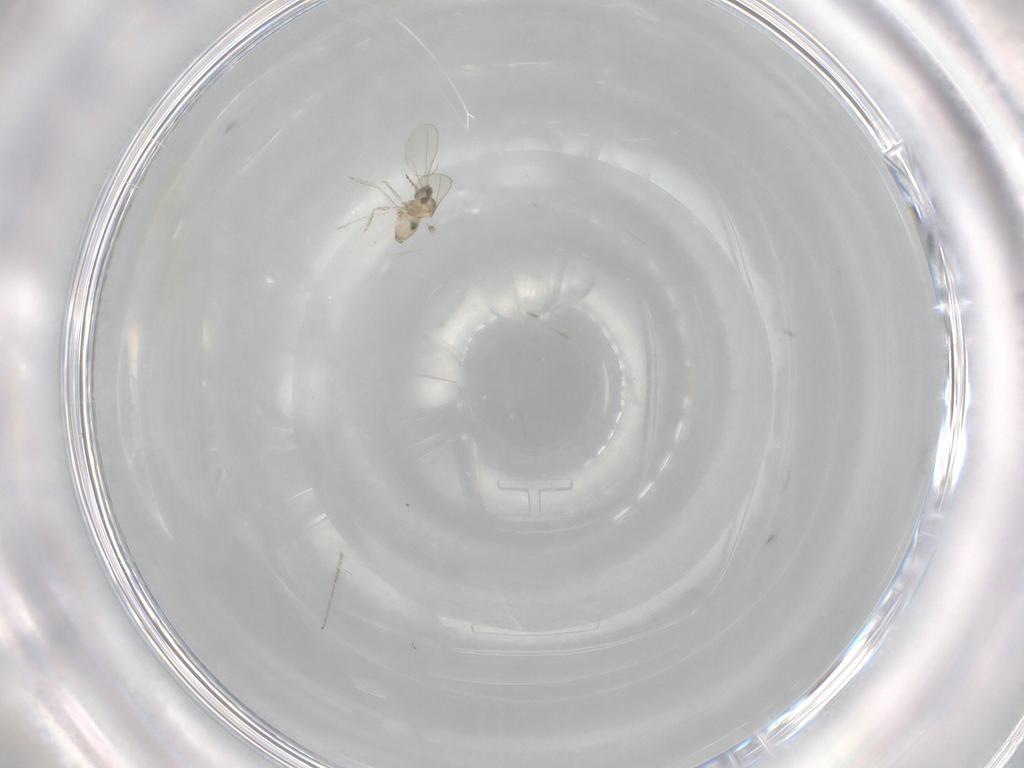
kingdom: Animalia
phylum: Arthropoda
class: Insecta
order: Diptera
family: Cecidomyiidae
